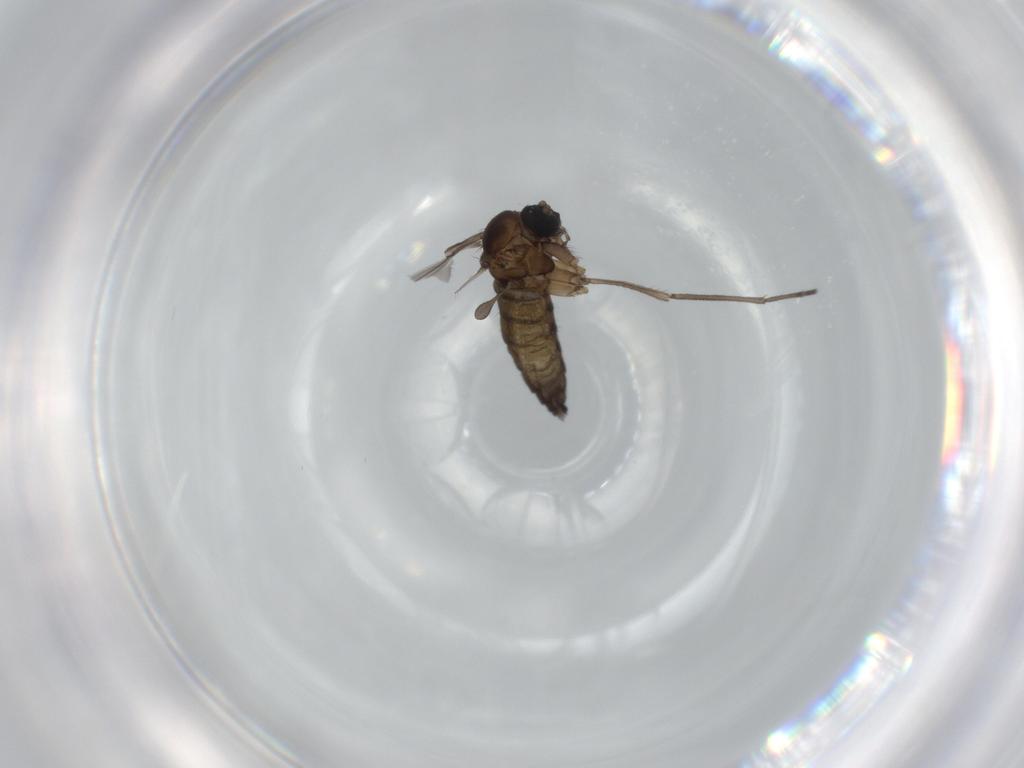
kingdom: Animalia
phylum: Arthropoda
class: Insecta
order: Diptera
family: Sciaridae
